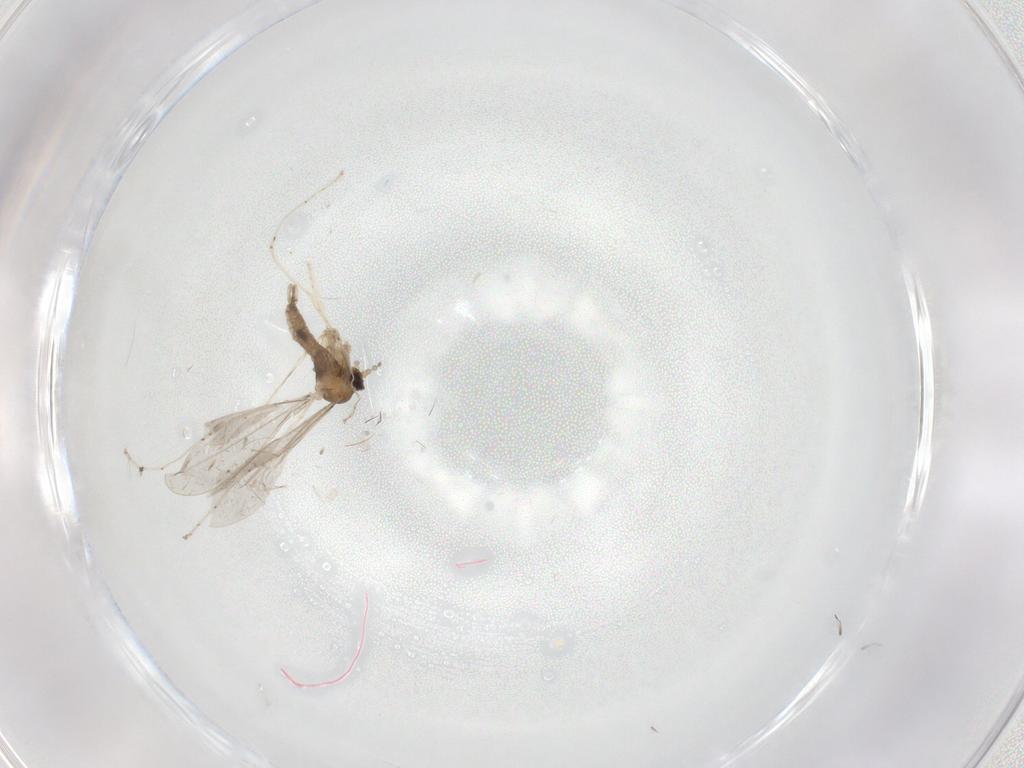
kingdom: Animalia
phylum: Arthropoda
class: Insecta
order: Diptera
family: Cecidomyiidae
